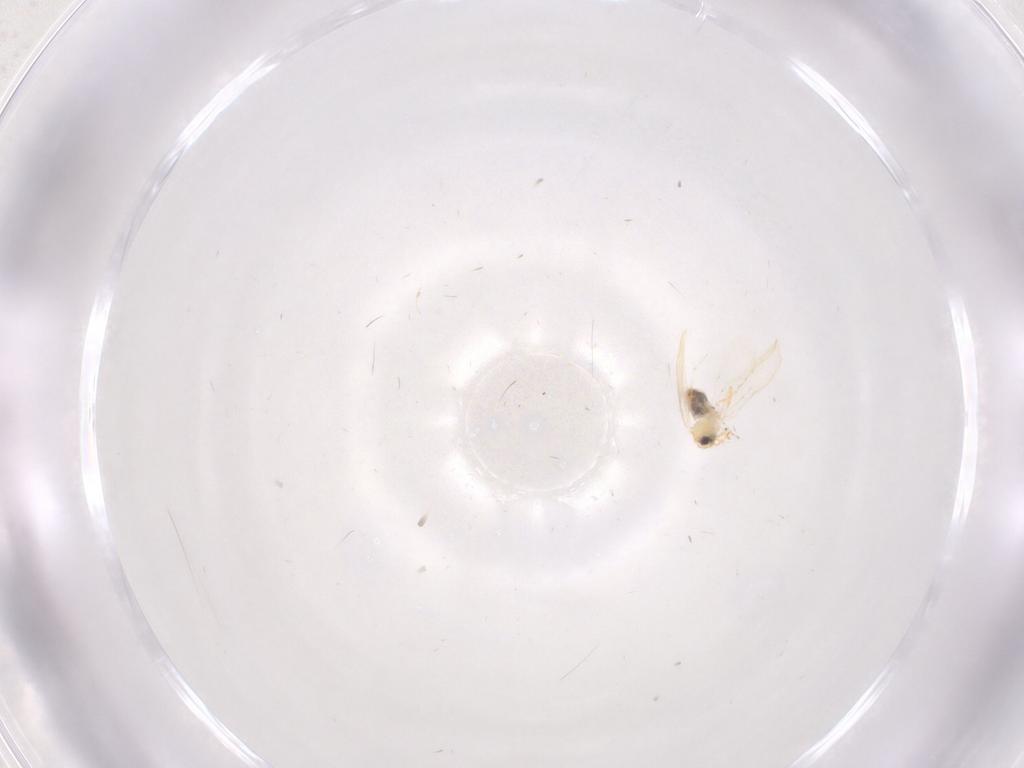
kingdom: Animalia
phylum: Arthropoda
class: Insecta
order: Hemiptera
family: Aleyrodidae
